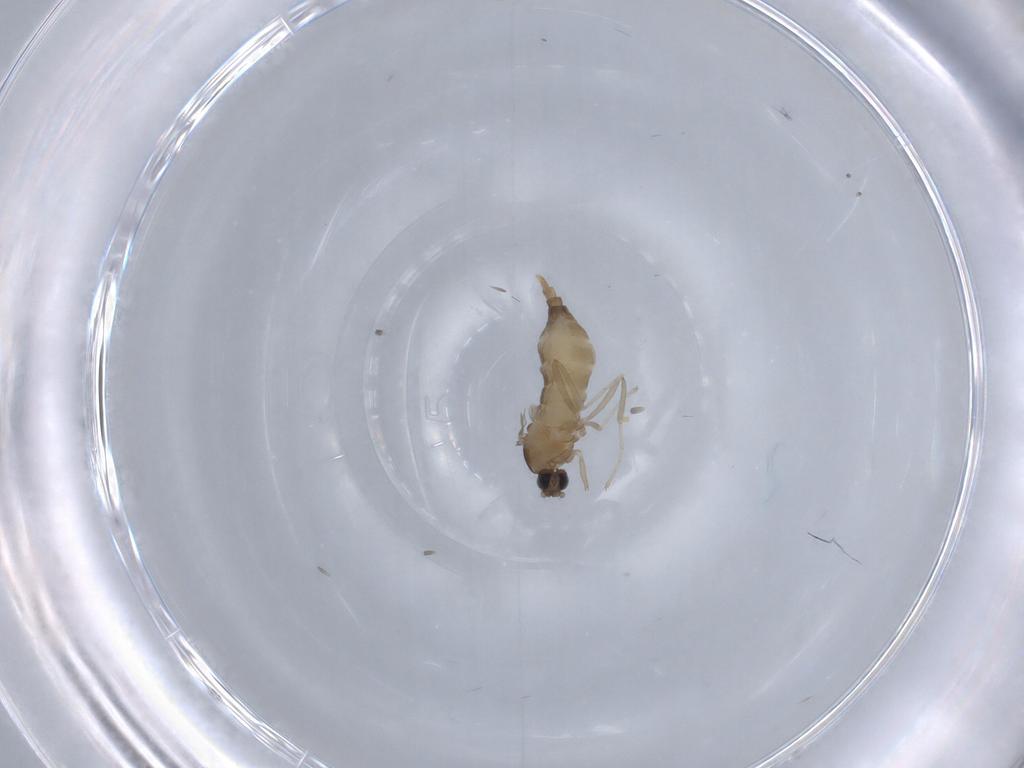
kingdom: Animalia
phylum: Arthropoda
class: Insecta
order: Diptera
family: Cecidomyiidae
